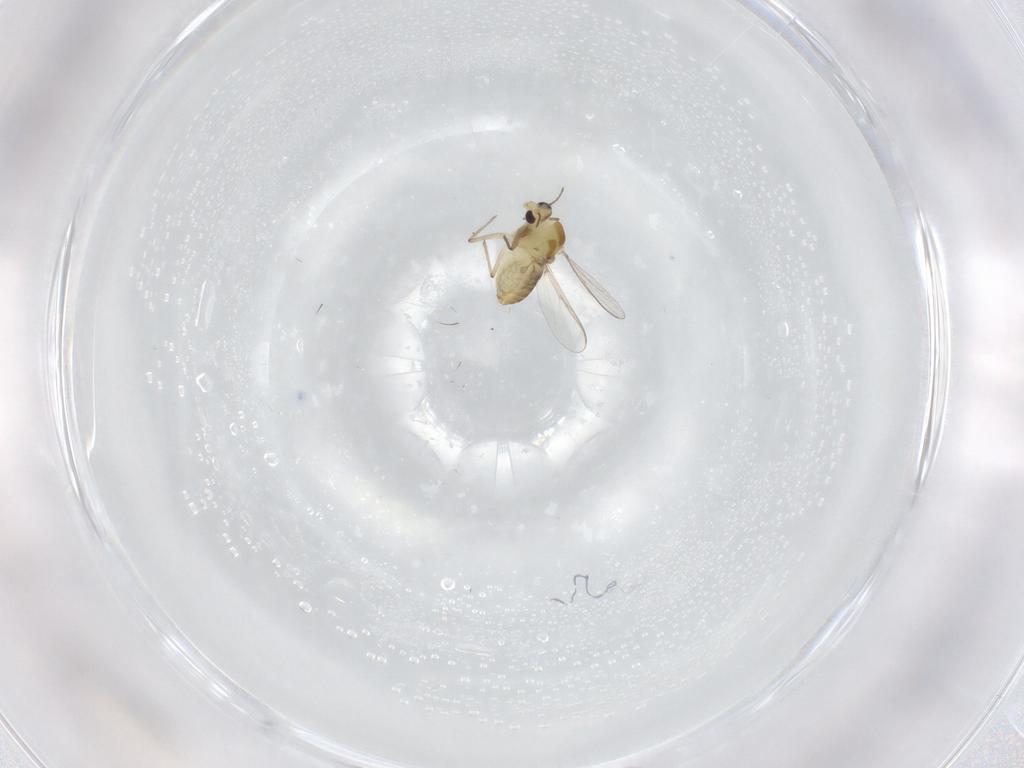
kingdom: Animalia
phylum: Arthropoda
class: Insecta
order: Diptera
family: Chironomidae
